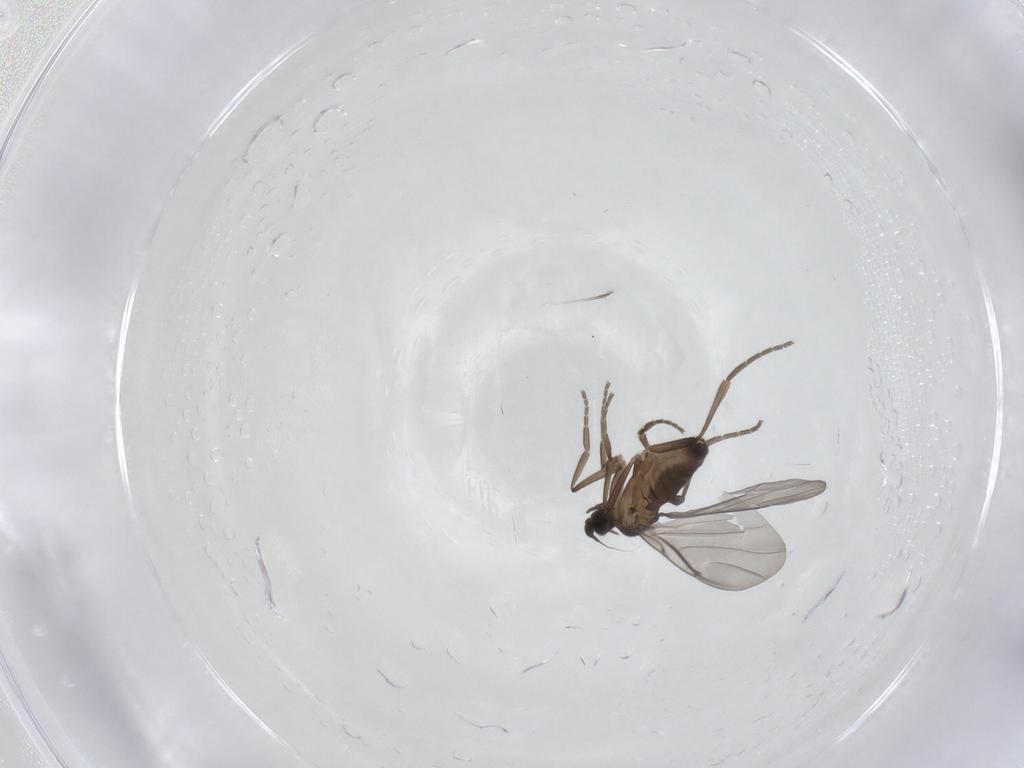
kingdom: Animalia
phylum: Arthropoda
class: Insecta
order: Diptera
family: Phoridae
